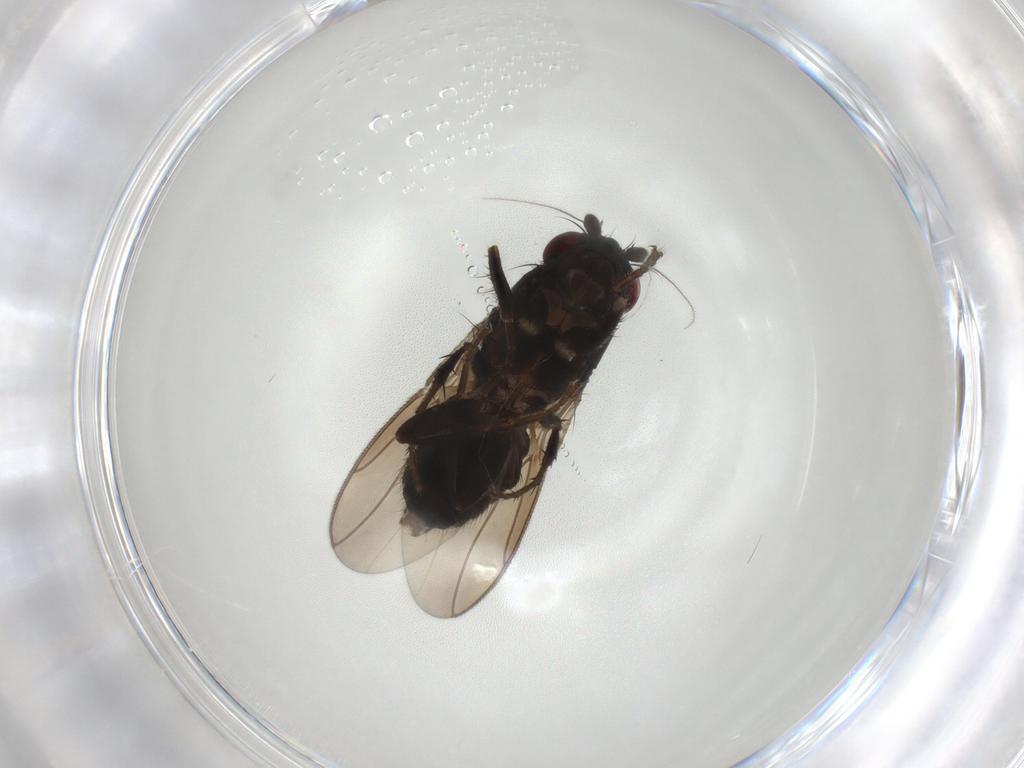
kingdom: Animalia
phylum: Arthropoda
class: Insecta
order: Diptera
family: Sphaeroceridae
